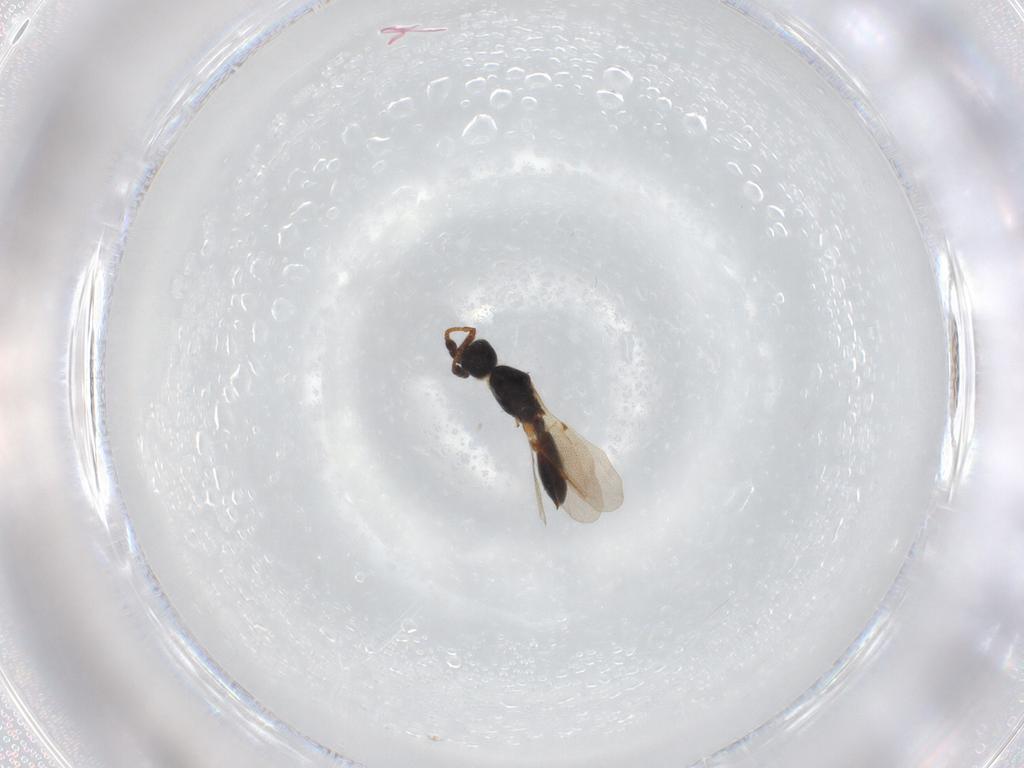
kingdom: Animalia
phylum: Arthropoda
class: Insecta
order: Hymenoptera
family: Diapriidae
